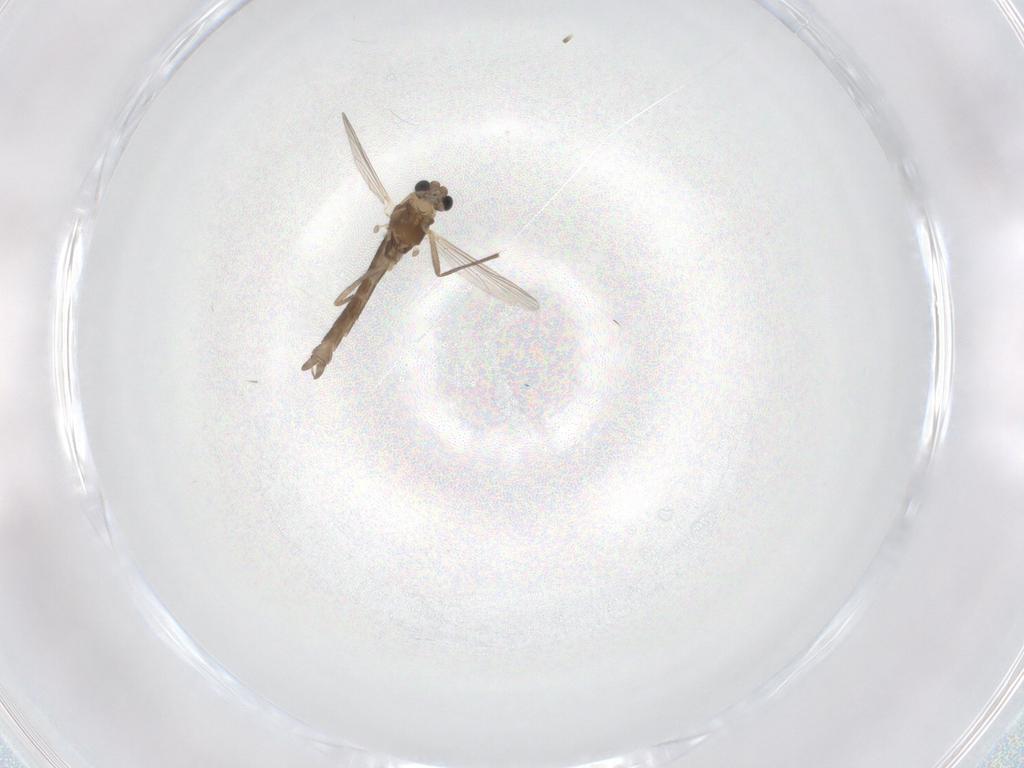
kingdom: Animalia
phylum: Arthropoda
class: Insecta
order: Diptera
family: Chironomidae
